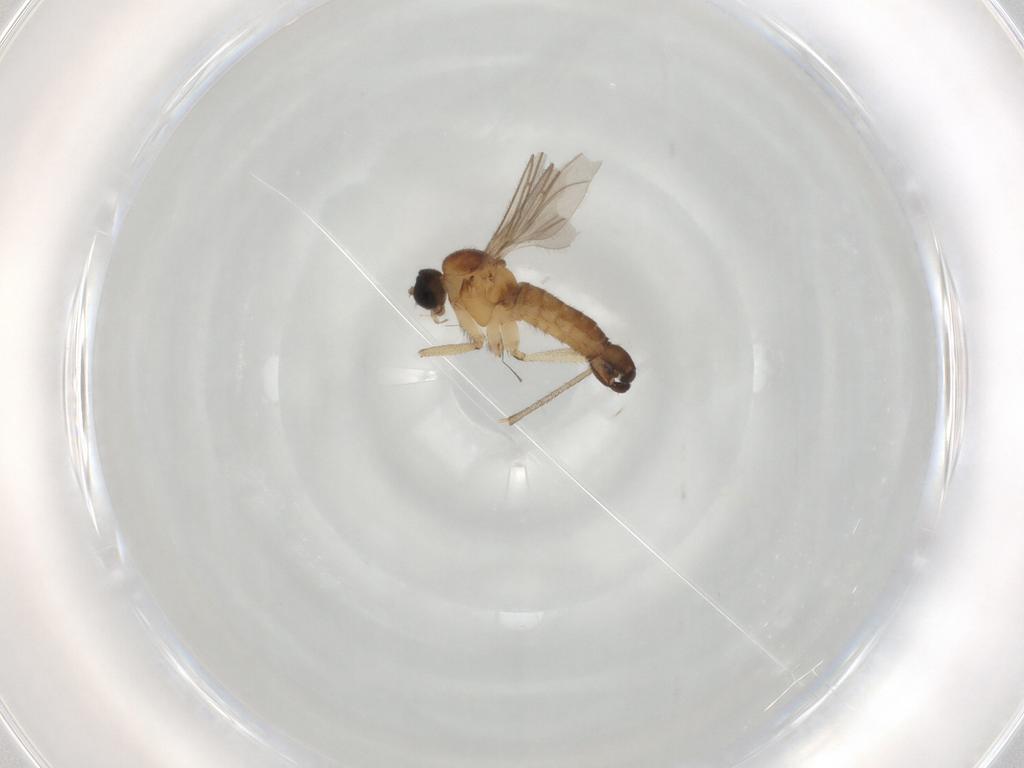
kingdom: Animalia
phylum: Arthropoda
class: Insecta
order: Diptera
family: Sciaridae
